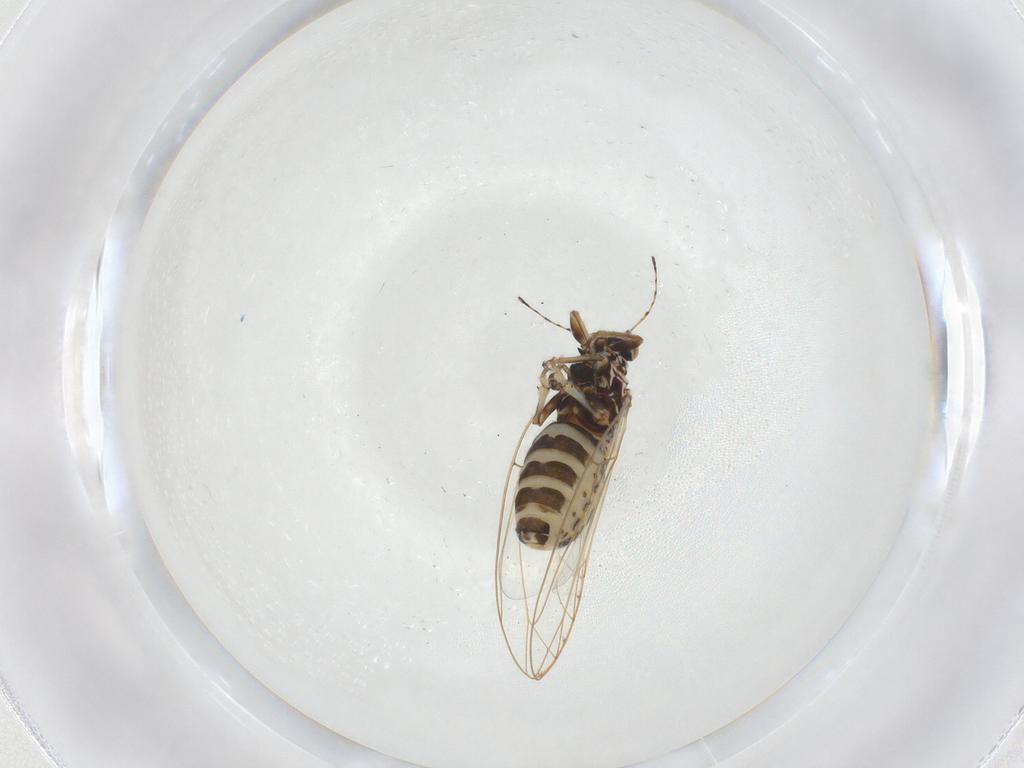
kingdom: Animalia
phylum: Arthropoda
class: Insecta
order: Hemiptera
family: Triozidae
